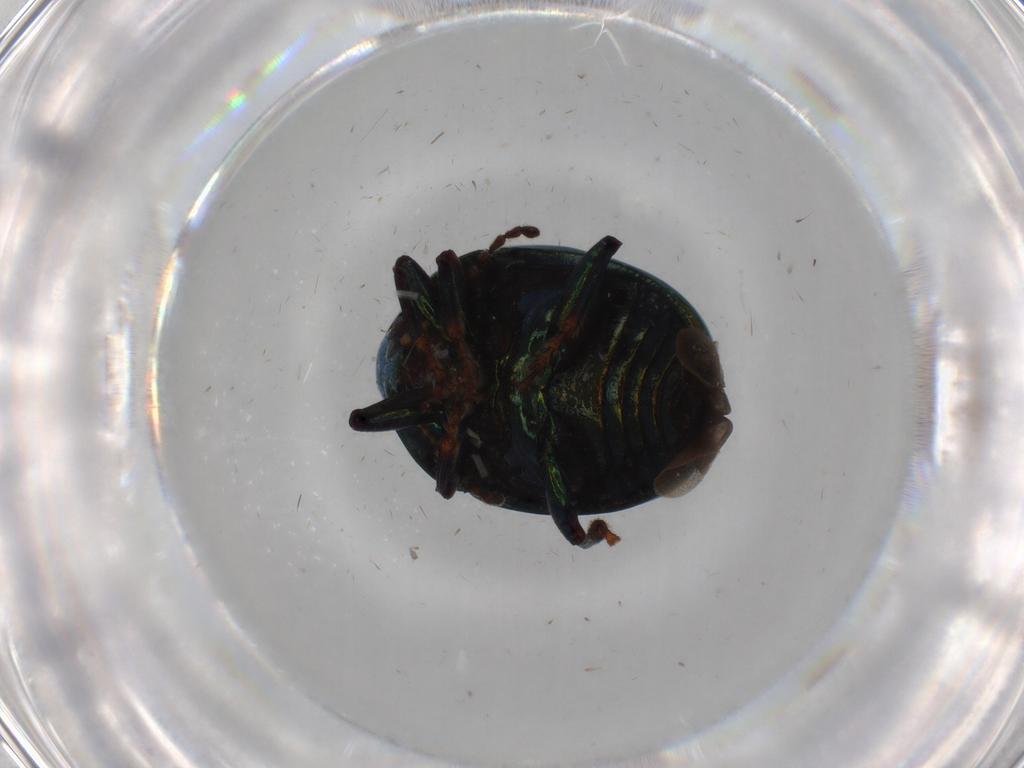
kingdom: Animalia
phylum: Arthropoda
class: Insecta
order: Coleoptera
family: Chrysomelidae
